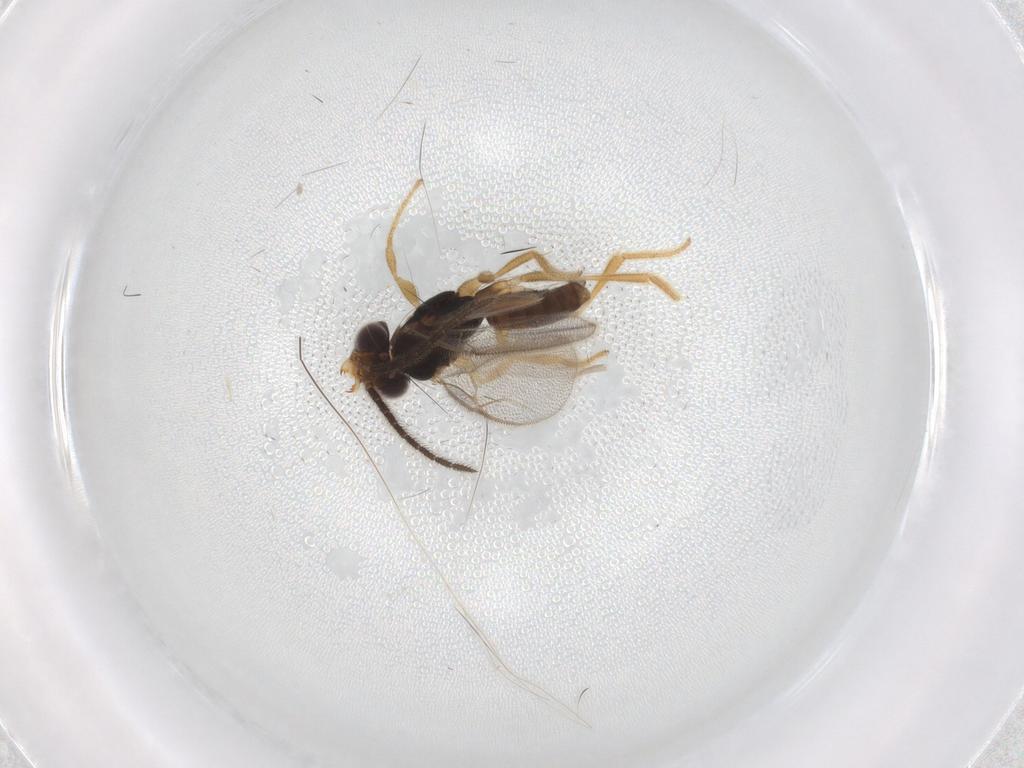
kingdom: Animalia
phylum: Arthropoda
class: Insecta
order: Hymenoptera
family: Dryinidae
